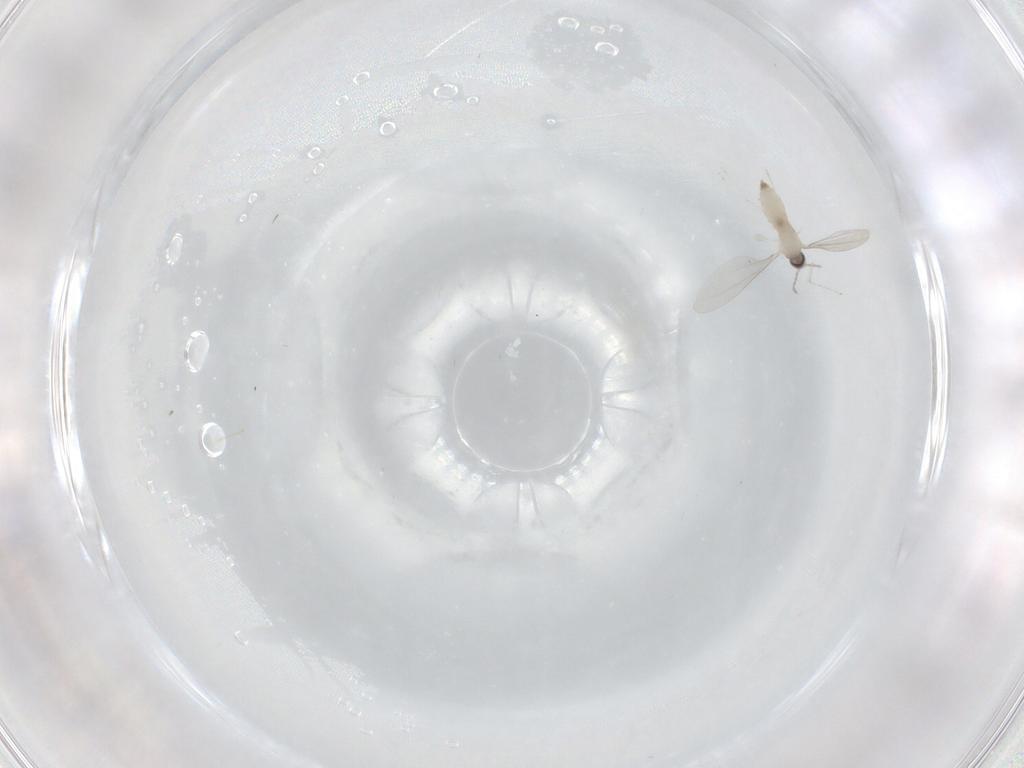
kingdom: Animalia
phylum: Arthropoda
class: Insecta
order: Diptera
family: Cecidomyiidae
